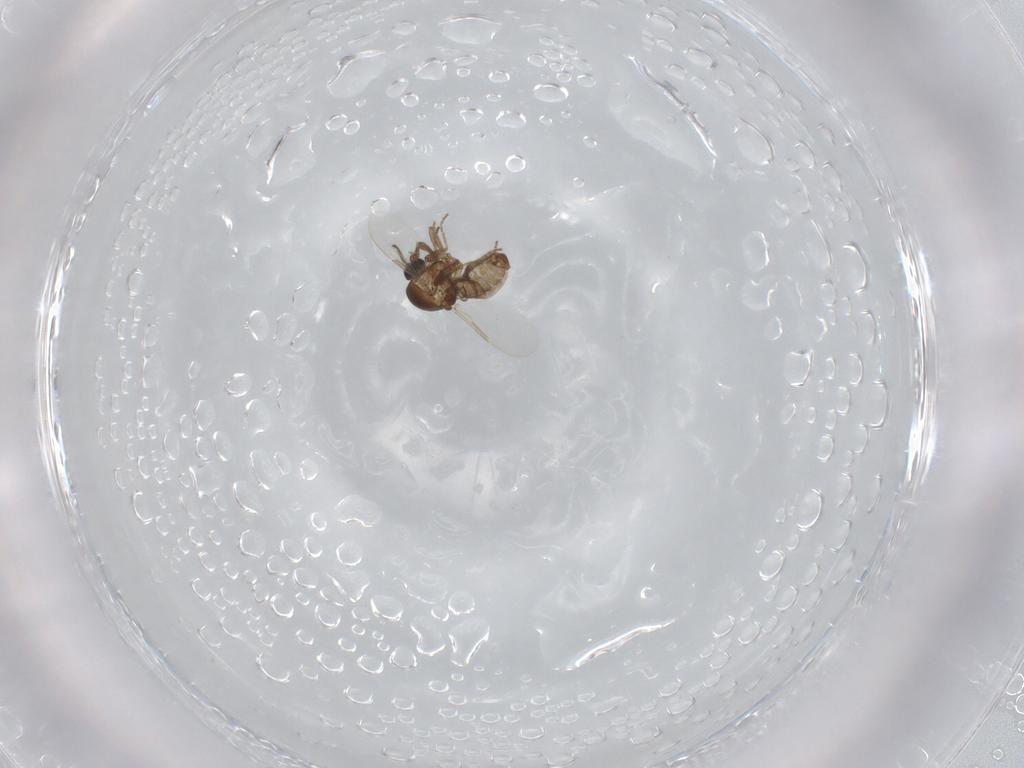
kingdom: Animalia
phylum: Arthropoda
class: Insecta
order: Diptera
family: Ceratopogonidae
